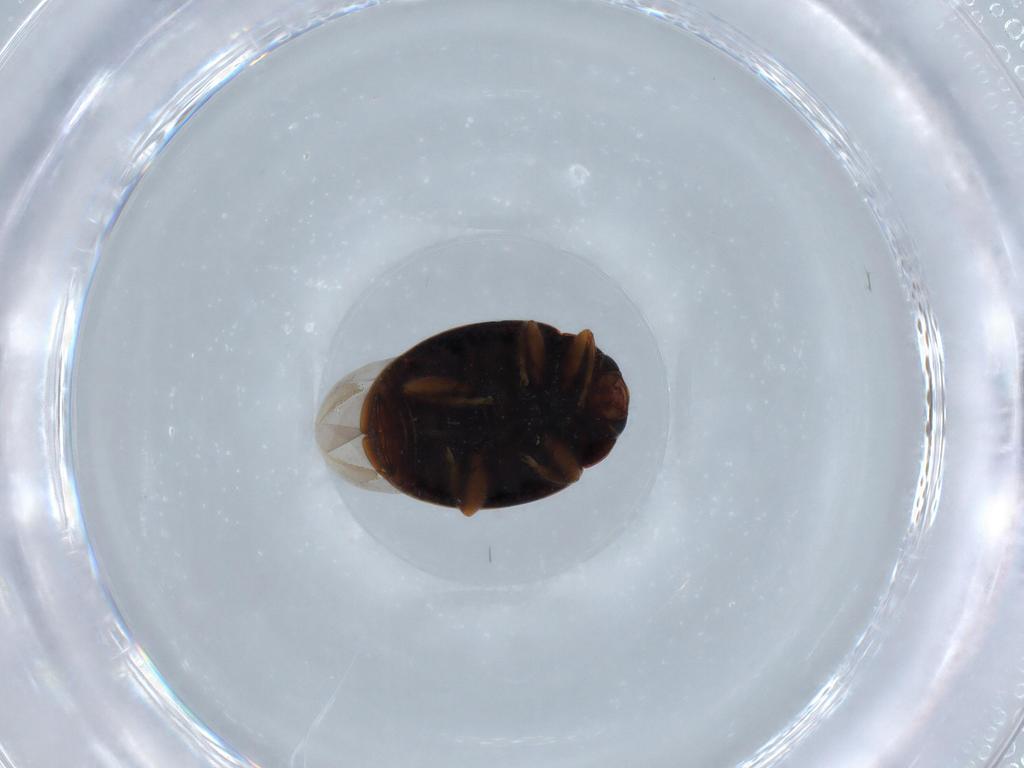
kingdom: Animalia
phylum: Arthropoda
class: Insecta
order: Coleoptera
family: Coccinellidae
